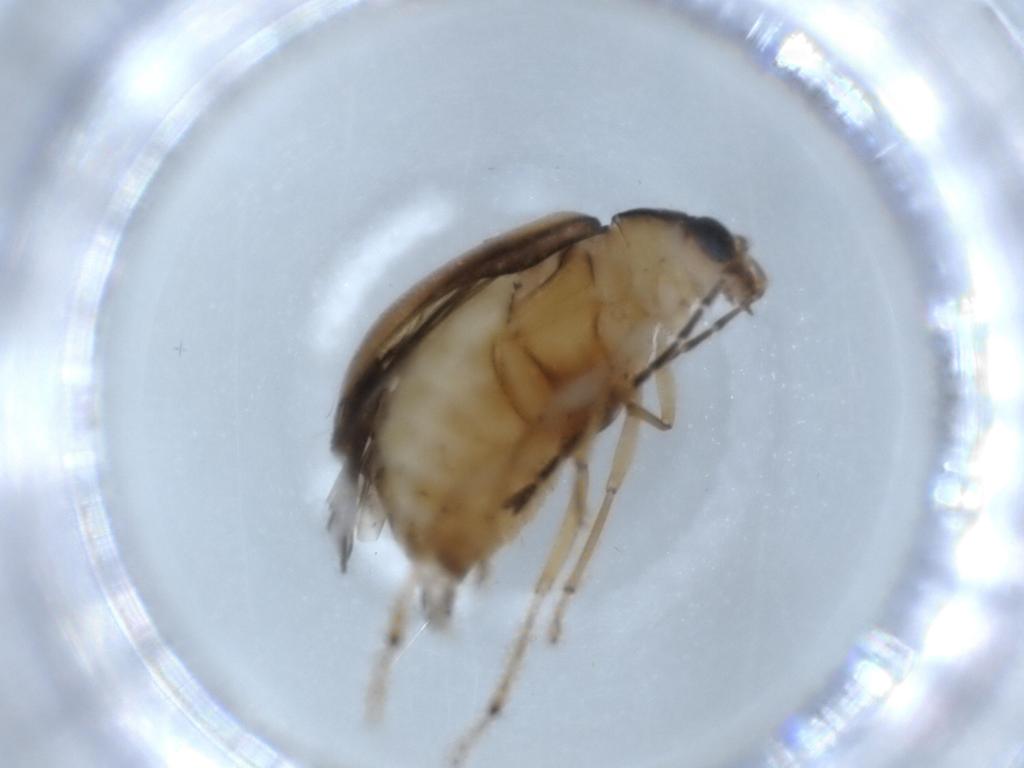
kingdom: Animalia
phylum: Arthropoda
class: Insecta
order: Coleoptera
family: Chrysomelidae
